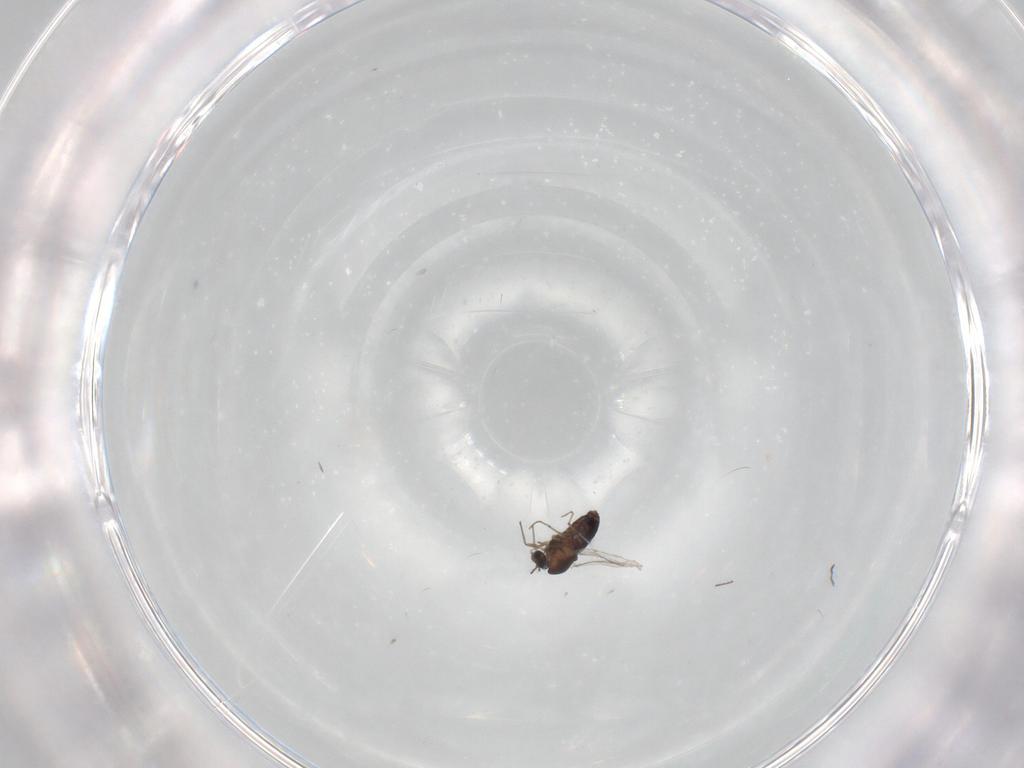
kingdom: Animalia
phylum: Arthropoda
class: Insecta
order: Diptera
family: Chironomidae
